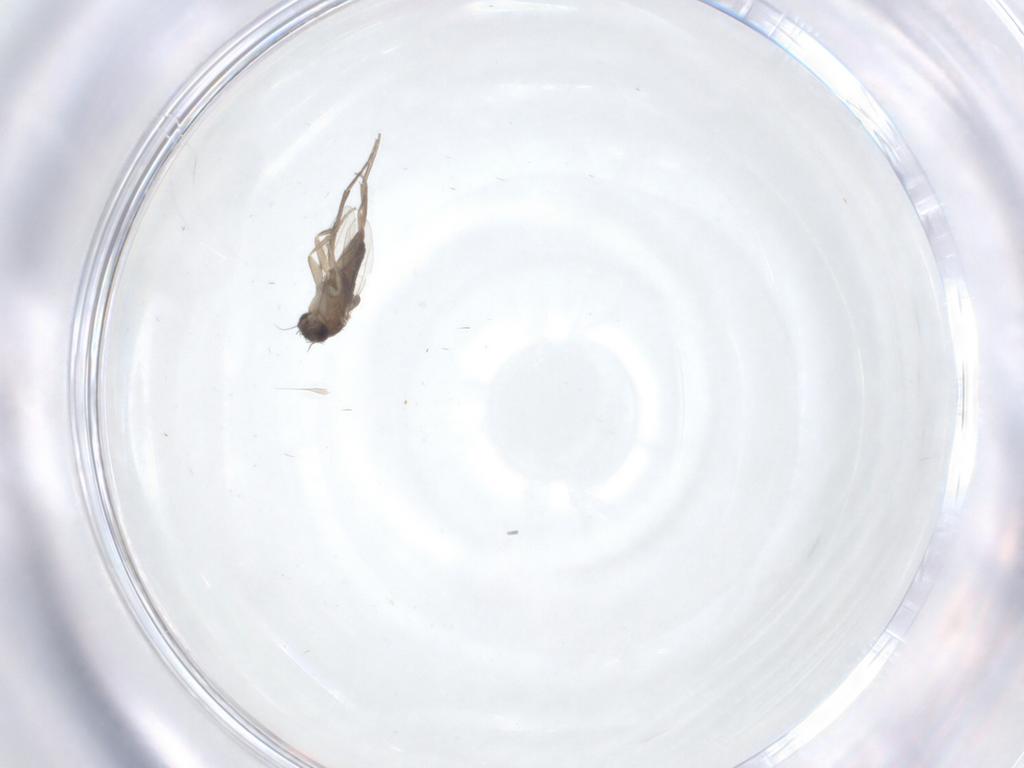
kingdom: Animalia
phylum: Arthropoda
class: Insecta
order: Diptera
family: Phoridae
